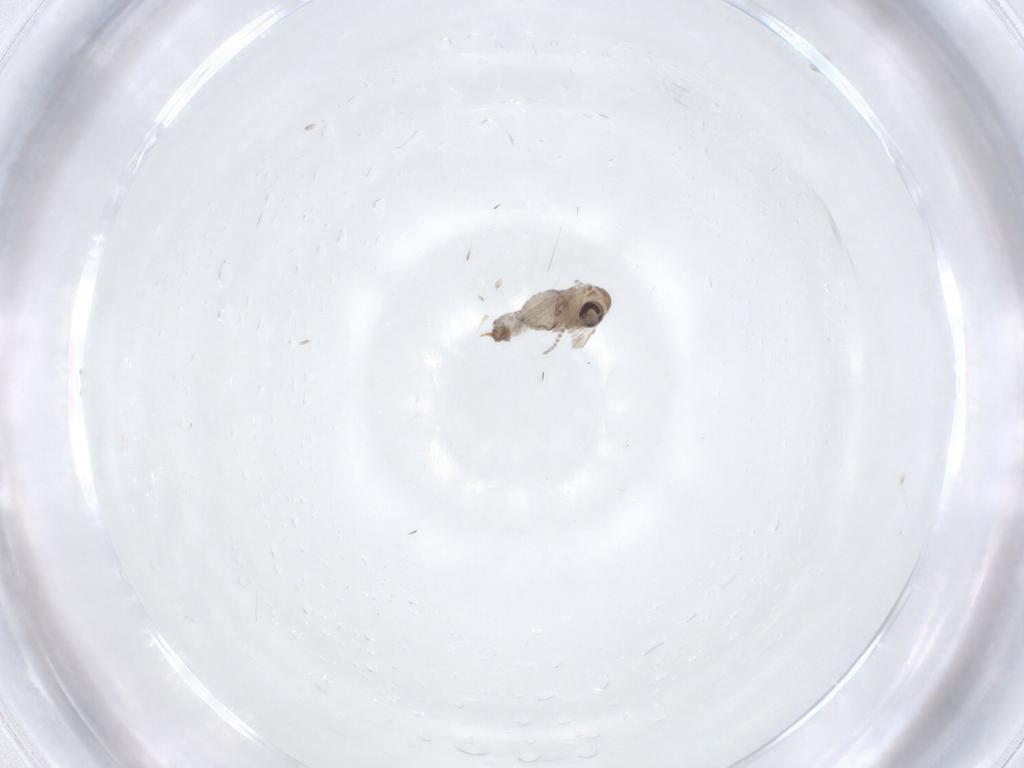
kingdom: Animalia
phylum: Arthropoda
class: Insecta
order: Diptera
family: Psychodidae
